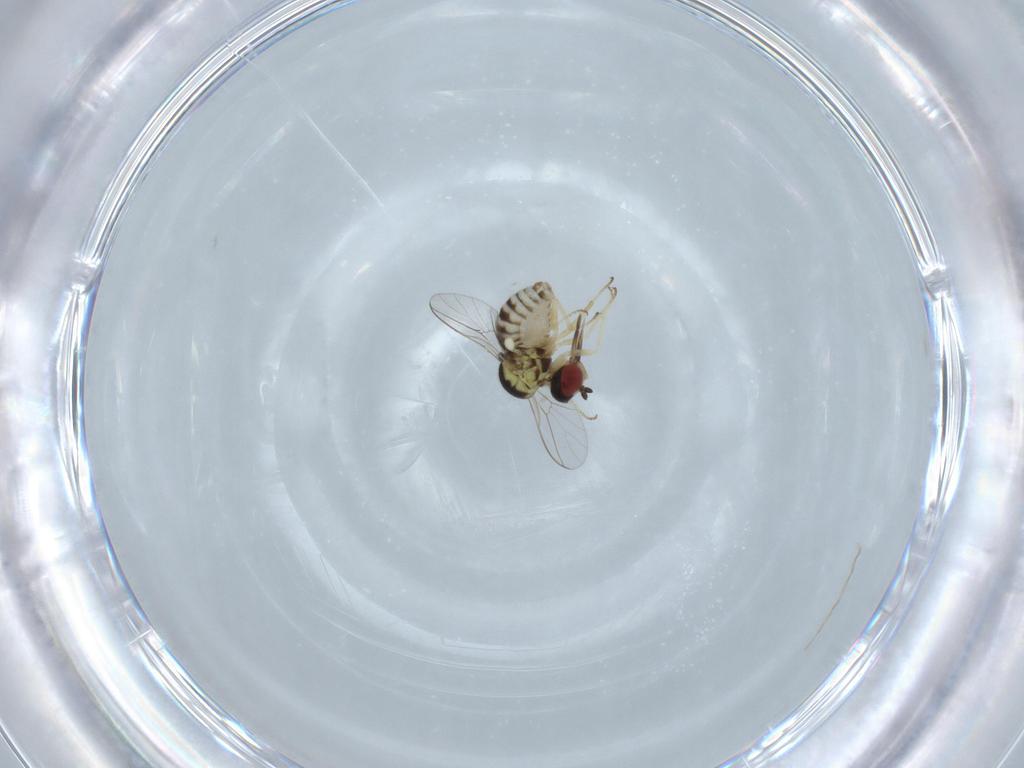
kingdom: Animalia
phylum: Arthropoda
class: Insecta
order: Diptera
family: Bombyliidae
